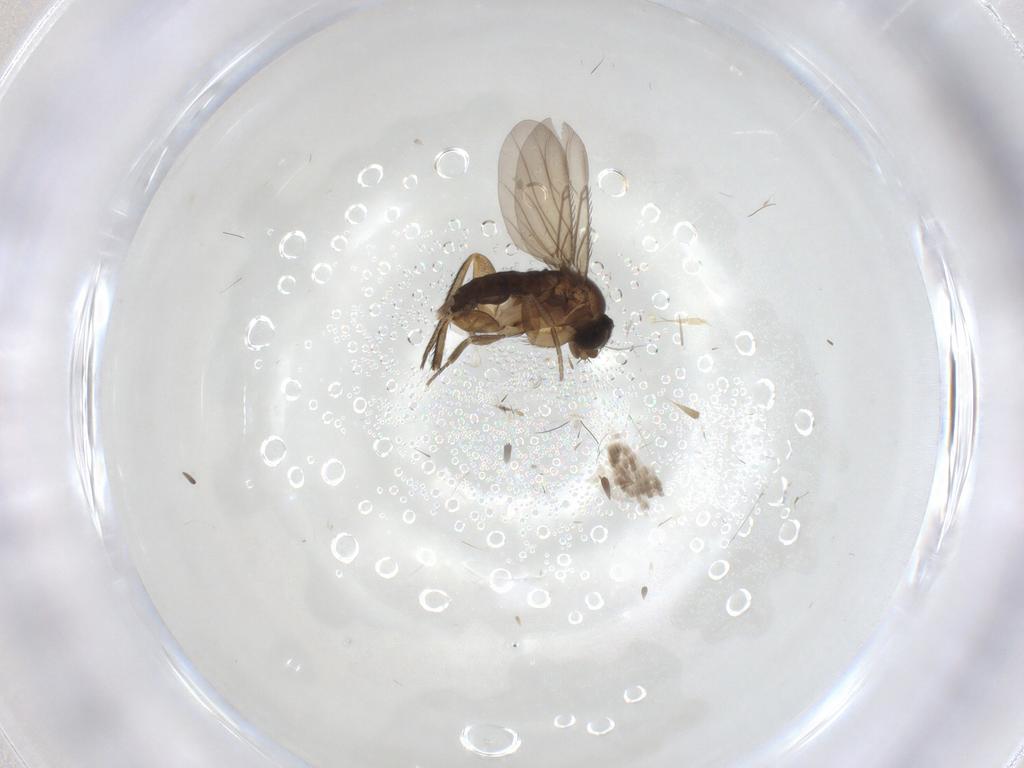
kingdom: Animalia
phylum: Arthropoda
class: Insecta
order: Diptera
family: Phoridae
